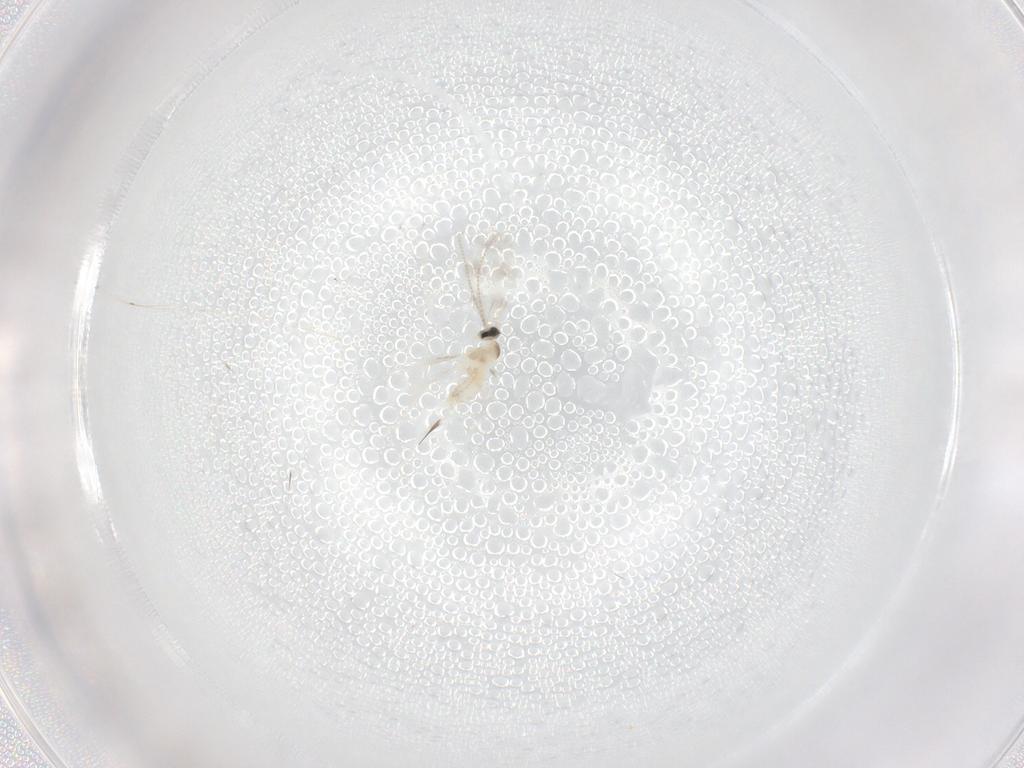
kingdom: Animalia
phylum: Arthropoda
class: Insecta
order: Diptera
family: Cecidomyiidae
